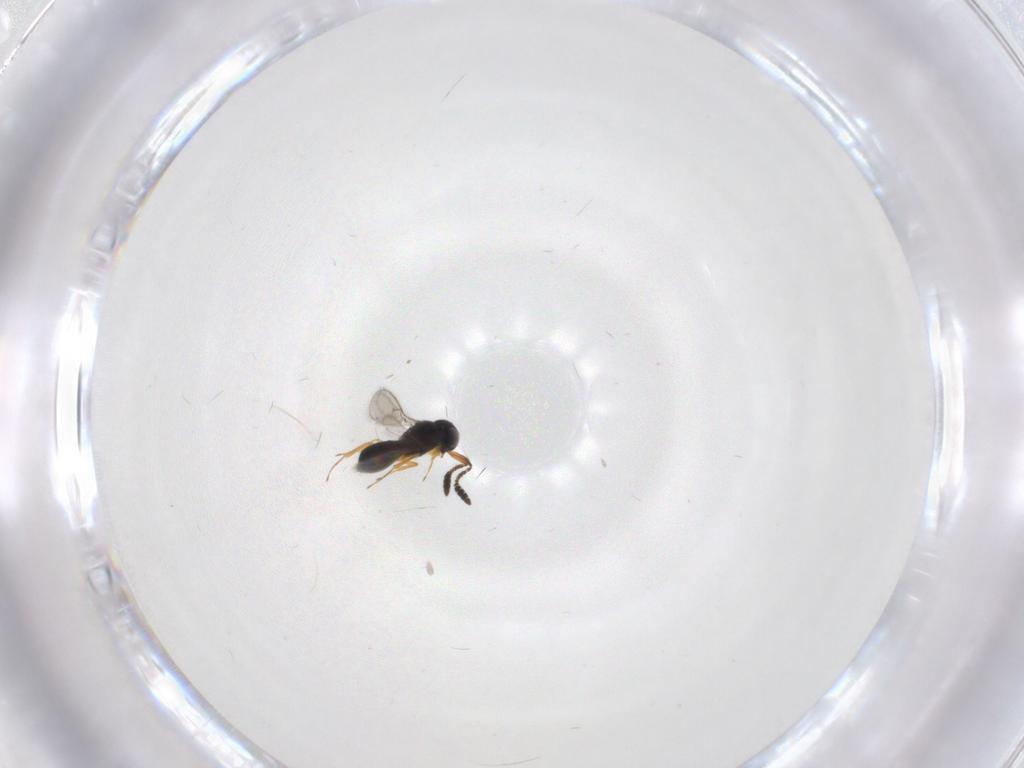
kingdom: Animalia
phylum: Arthropoda
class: Insecta
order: Hymenoptera
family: Scelionidae
